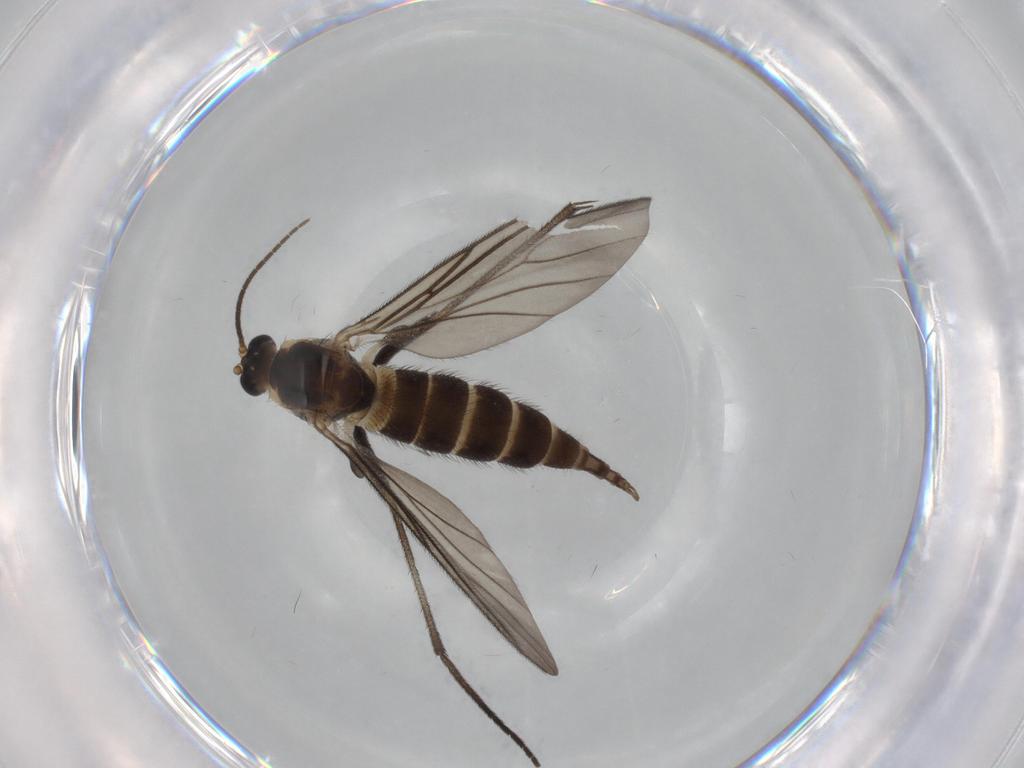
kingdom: Animalia
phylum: Arthropoda
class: Insecta
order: Diptera
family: Sciaridae
